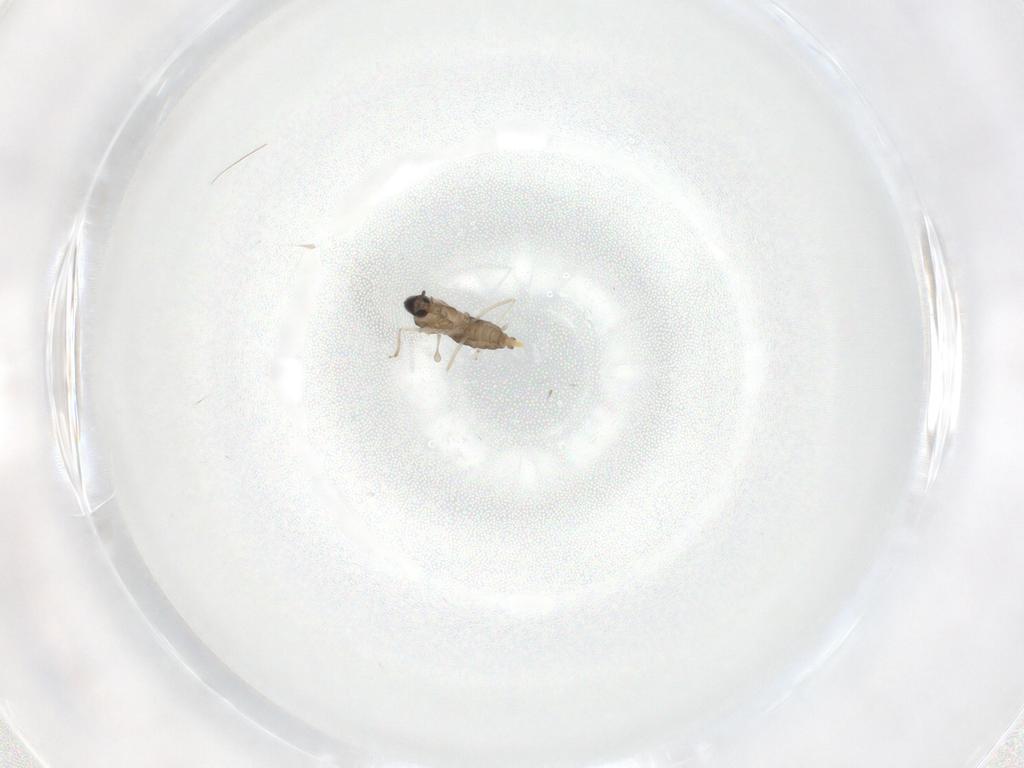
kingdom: Animalia
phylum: Arthropoda
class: Insecta
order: Diptera
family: Cecidomyiidae
